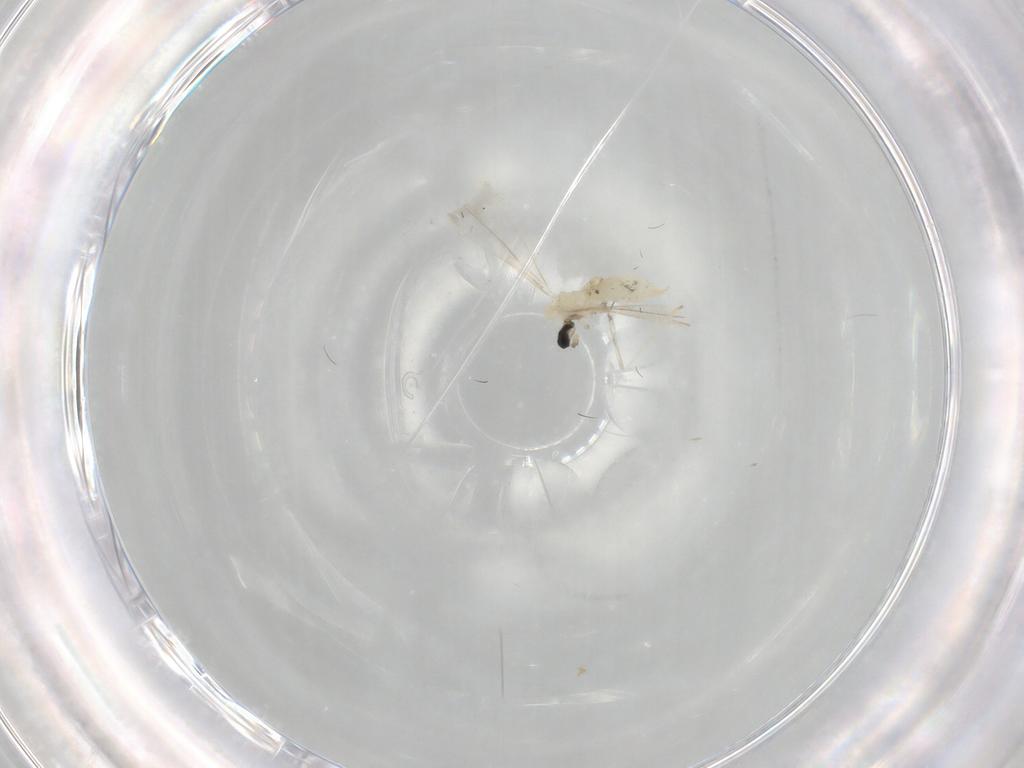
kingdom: Animalia
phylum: Arthropoda
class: Insecta
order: Diptera
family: Cecidomyiidae
